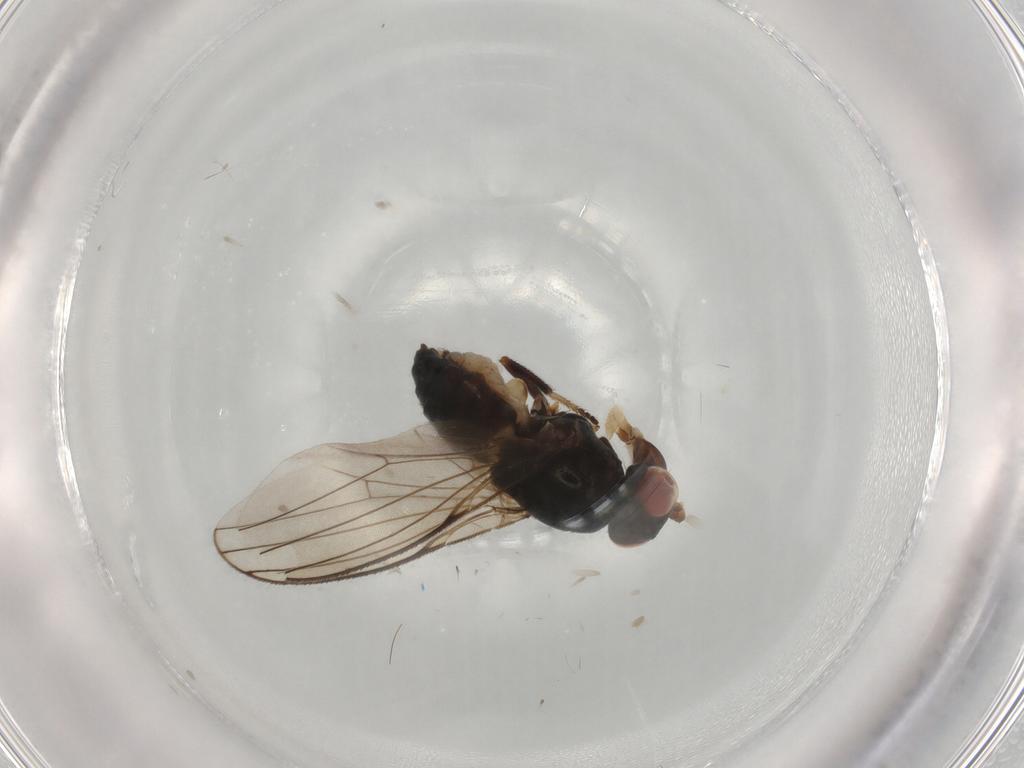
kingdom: Animalia
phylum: Arthropoda
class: Insecta
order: Diptera
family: Cecidomyiidae
